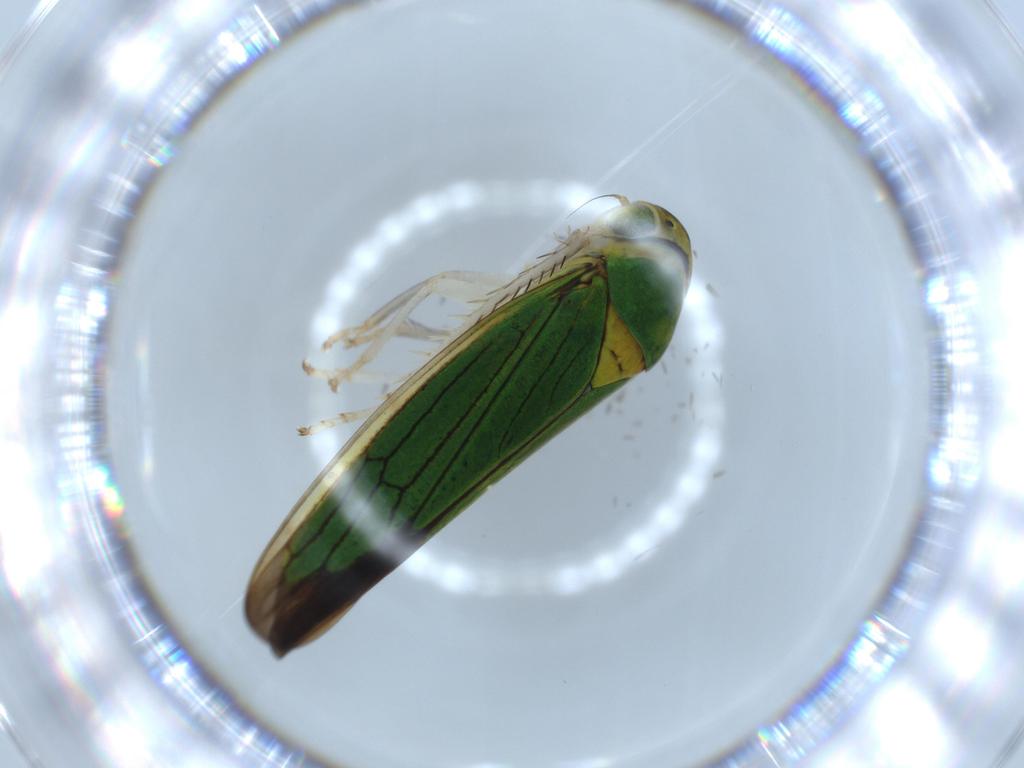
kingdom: Animalia
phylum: Arthropoda
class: Insecta
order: Hemiptera
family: Cicadellidae
